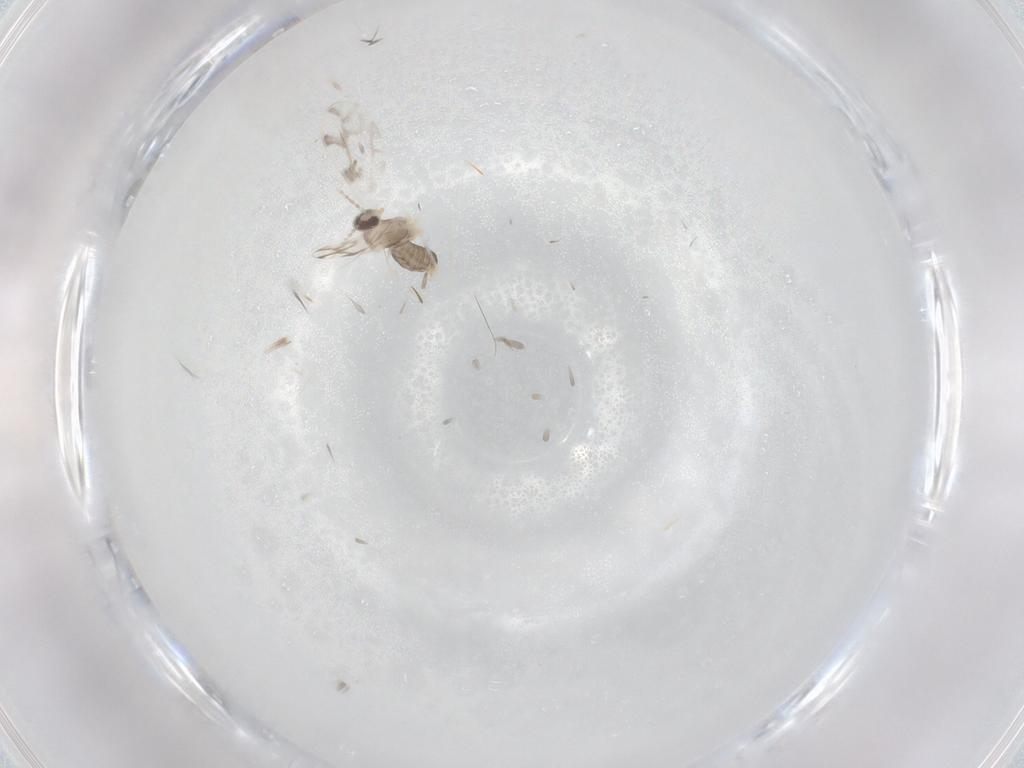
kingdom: Animalia
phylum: Arthropoda
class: Insecta
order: Diptera
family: Cecidomyiidae
